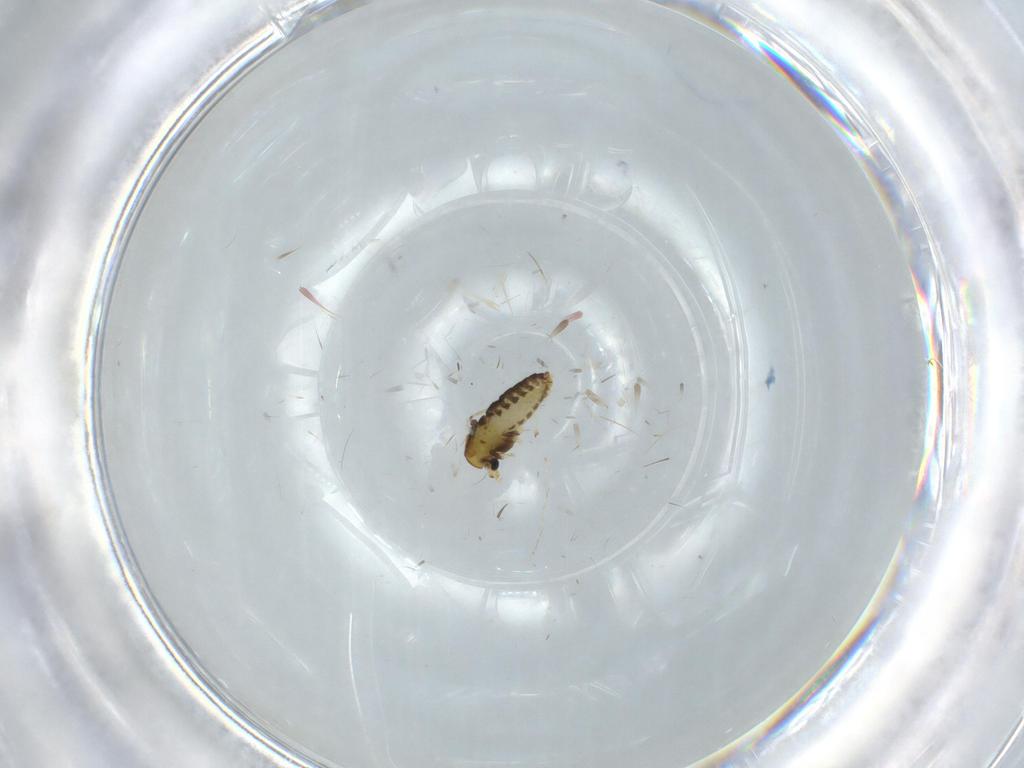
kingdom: Animalia
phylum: Arthropoda
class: Insecta
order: Diptera
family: Chironomidae
